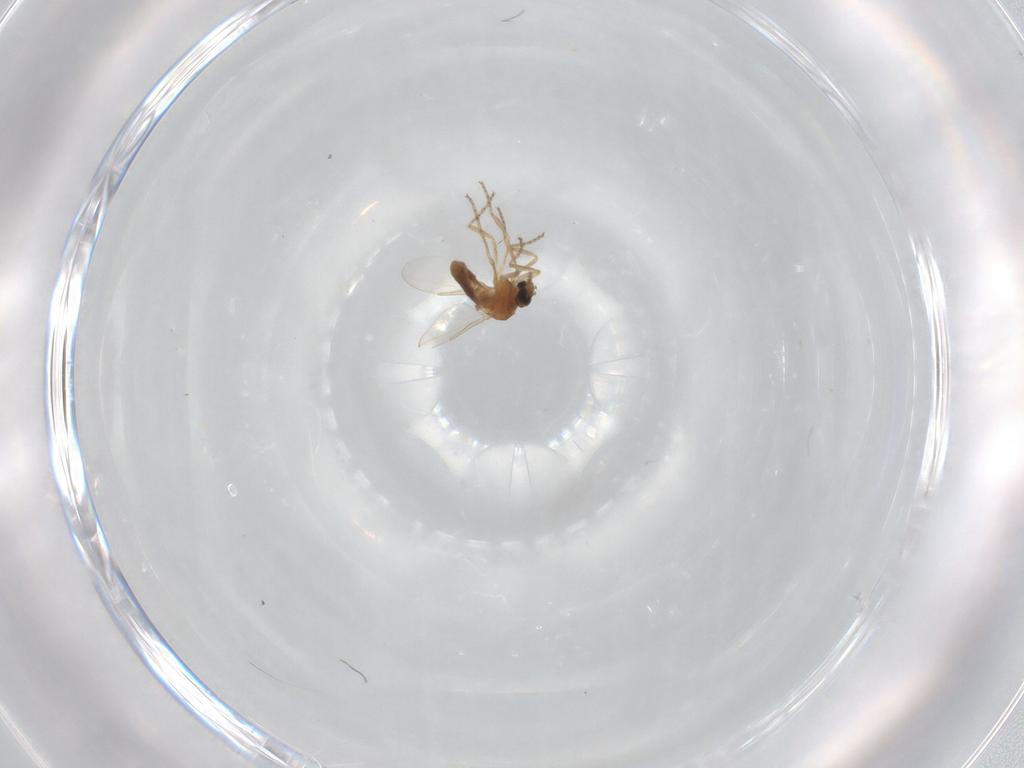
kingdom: Animalia
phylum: Arthropoda
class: Insecta
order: Diptera
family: Ceratopogonidae
